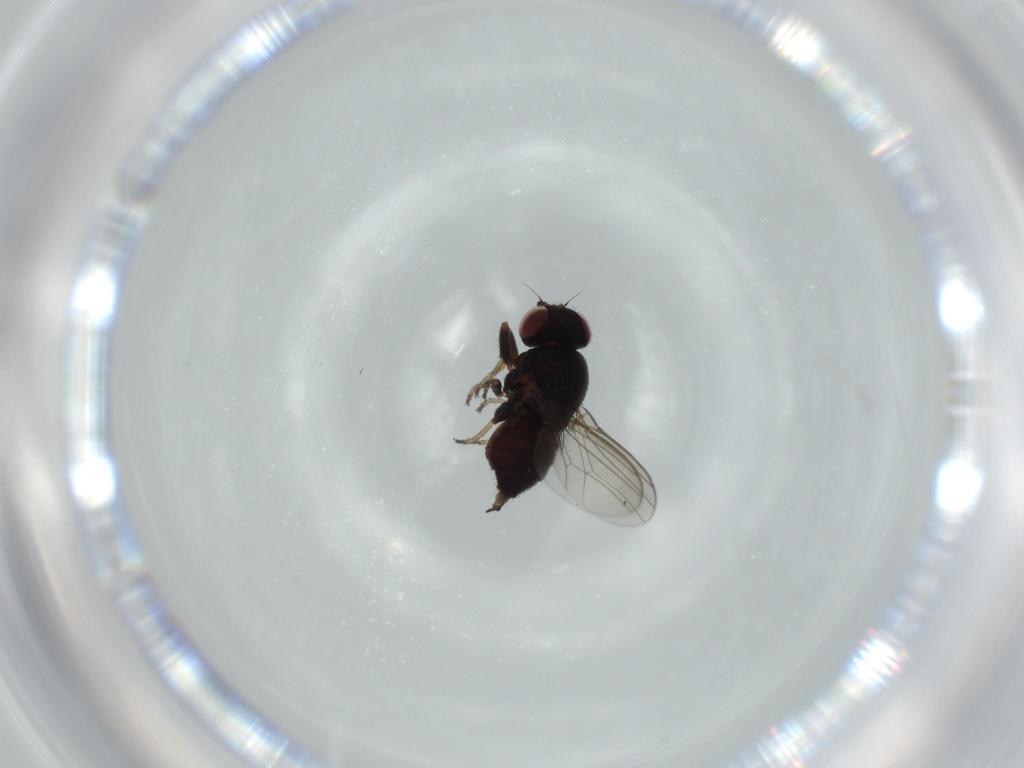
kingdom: Animalia
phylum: Arthropoda
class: Insecta
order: Diptera
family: Chloropidae
